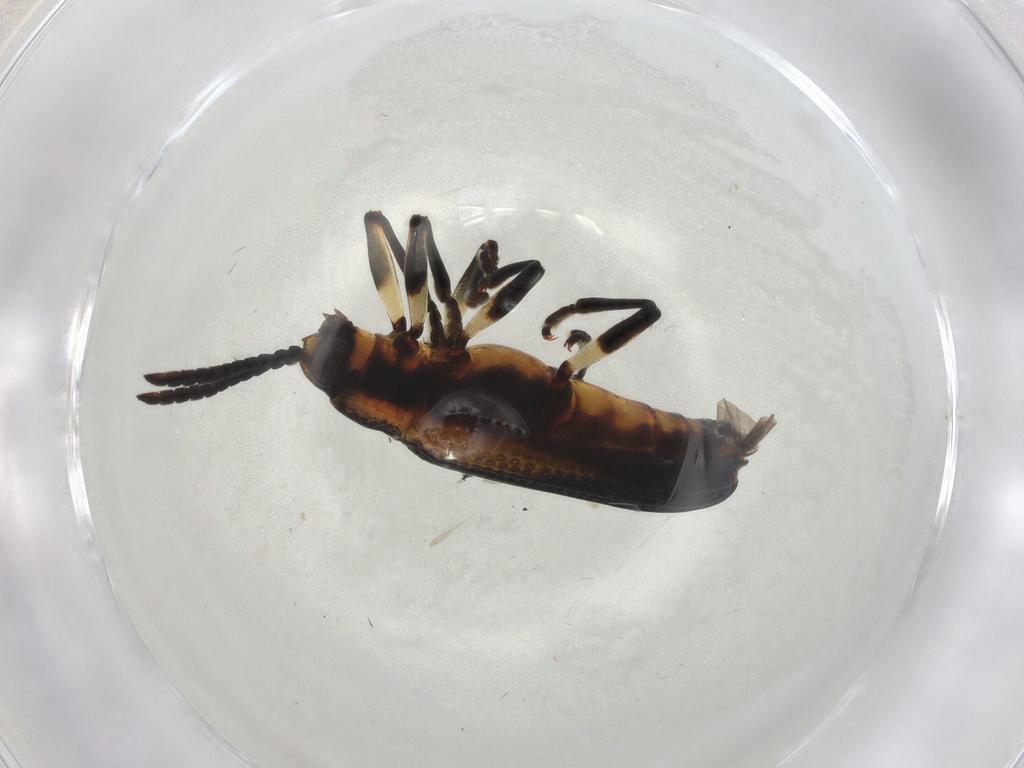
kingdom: Animalia
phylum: Arthropoda
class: Insecta
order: Coleoptera
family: Chrysomelidae
